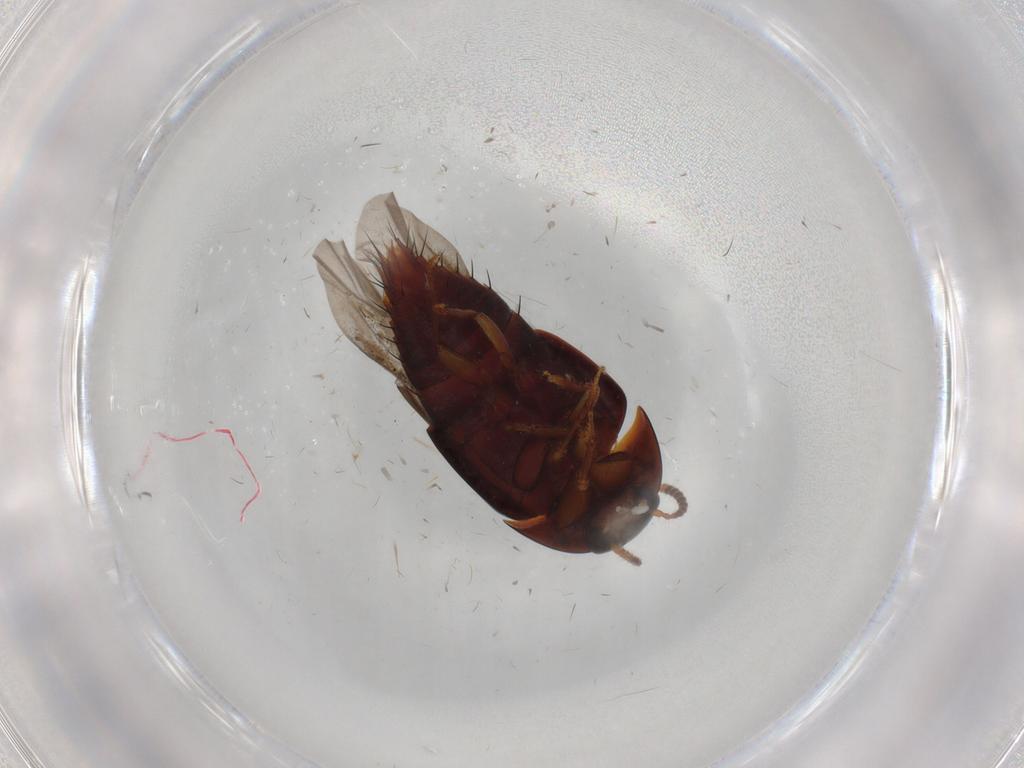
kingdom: Animalia
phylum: Arthropoda
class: Insecta
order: Coleoptera
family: Staphylinidae
